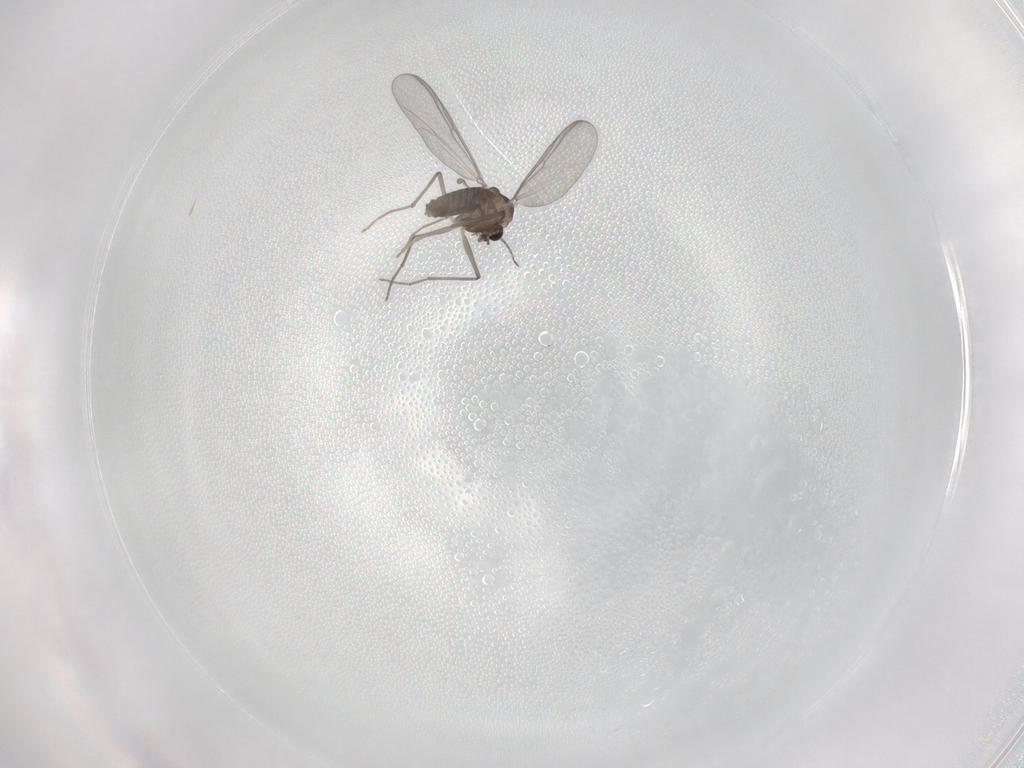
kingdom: Animalia
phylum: Arthropoda
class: Insecta
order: Diptera
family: Chironomidae
